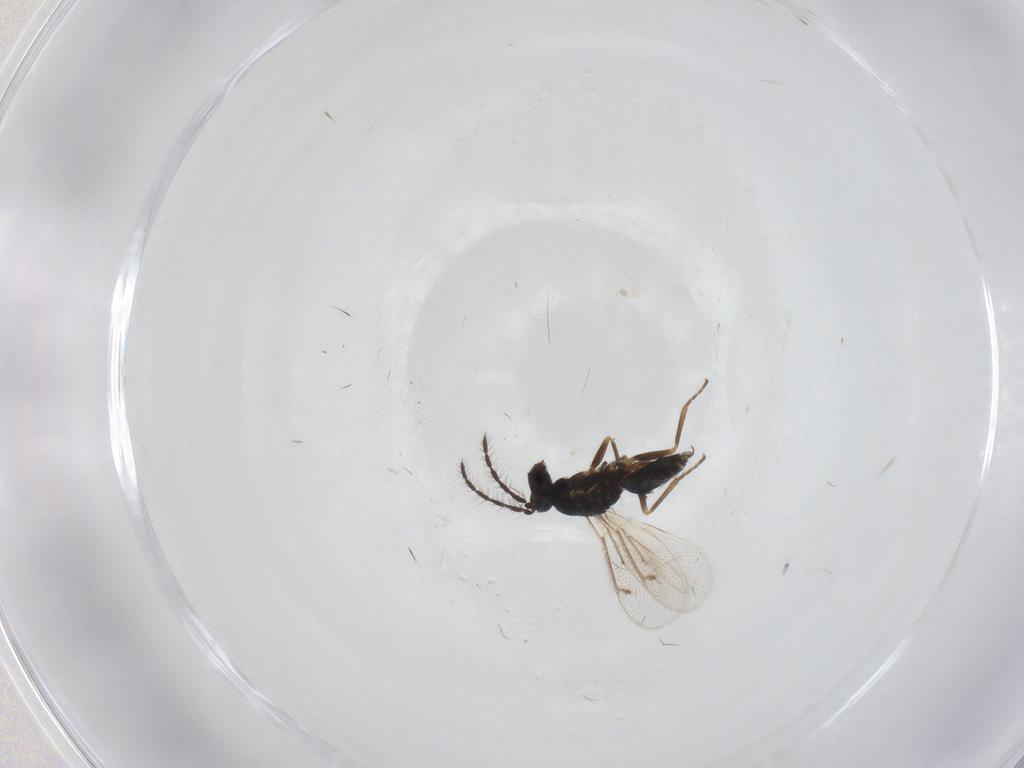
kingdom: Animalia
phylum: Arthropoda
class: Insecta
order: Hymenoptera
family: Eulophidae
